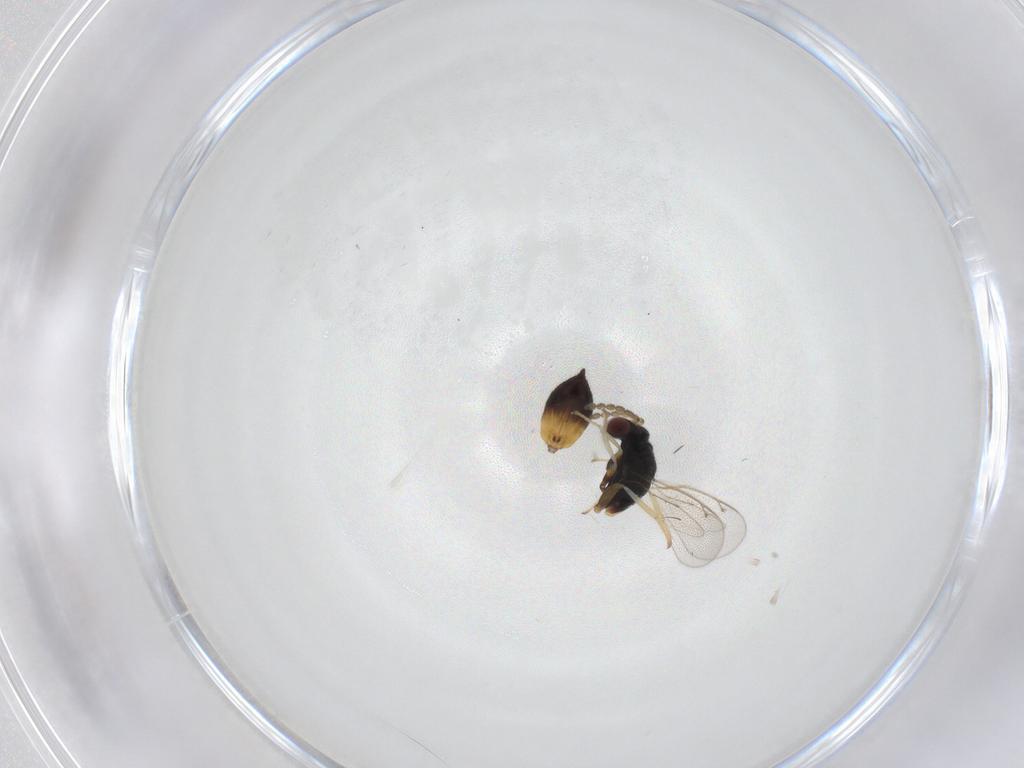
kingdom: Animalia
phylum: Arthropoda
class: Insecta
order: Hymenoptera
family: Eulophidae
